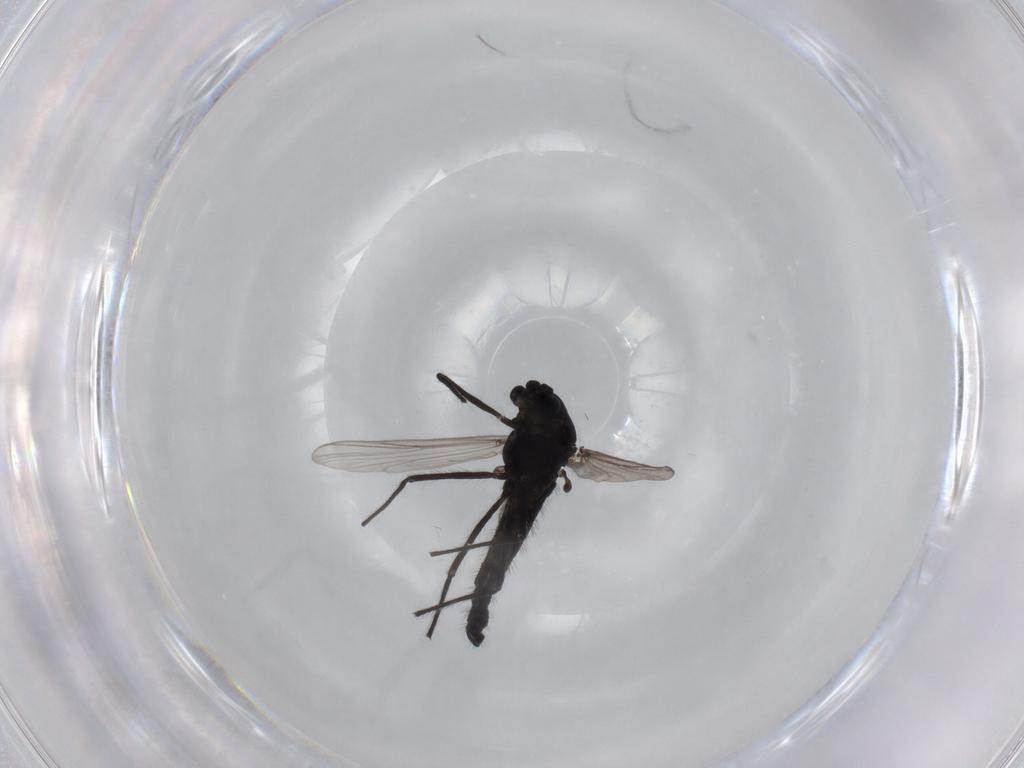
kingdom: Animalia
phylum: Arthropoda
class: Insecta
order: Diptera
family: Chironomidae
